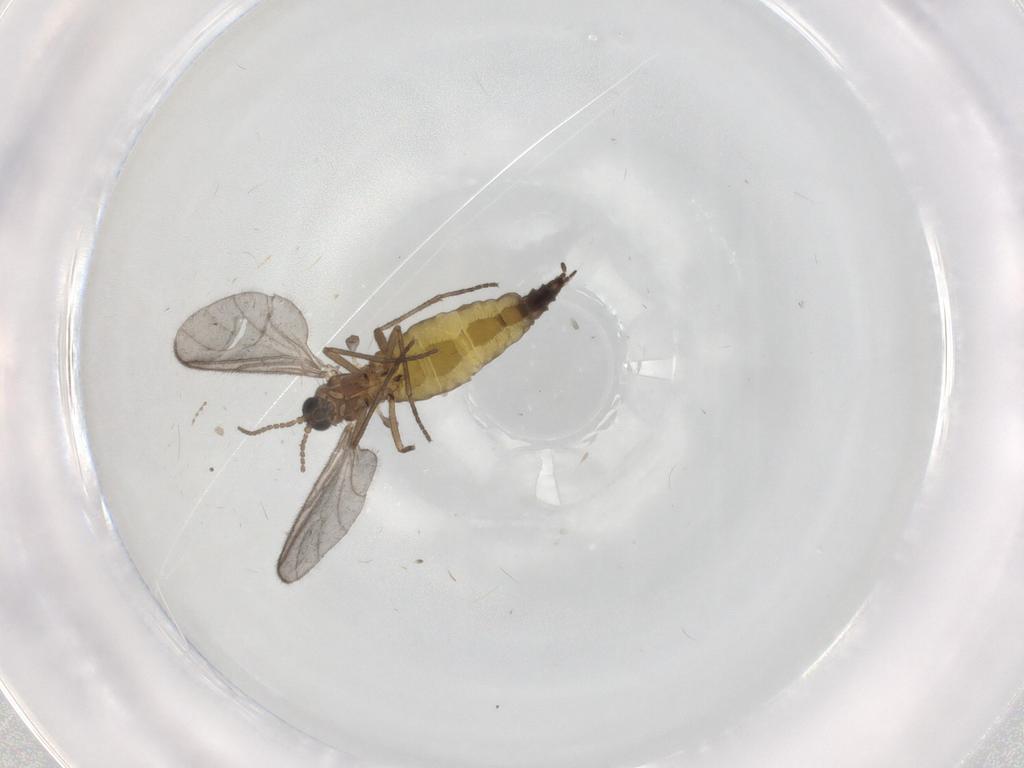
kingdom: Animalia
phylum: Arthropoda
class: Insecta
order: Diptera
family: Sciaridae
